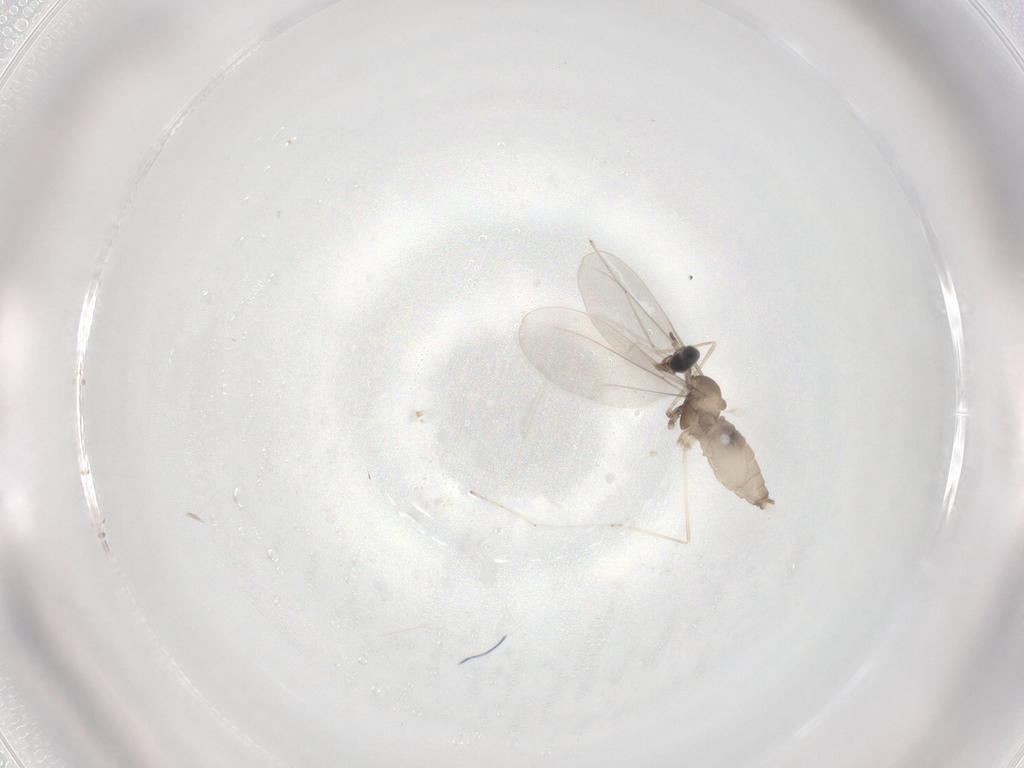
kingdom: Animalia
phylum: Arthropoda
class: Insecta
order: Diptera
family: Cecidomyiidae
